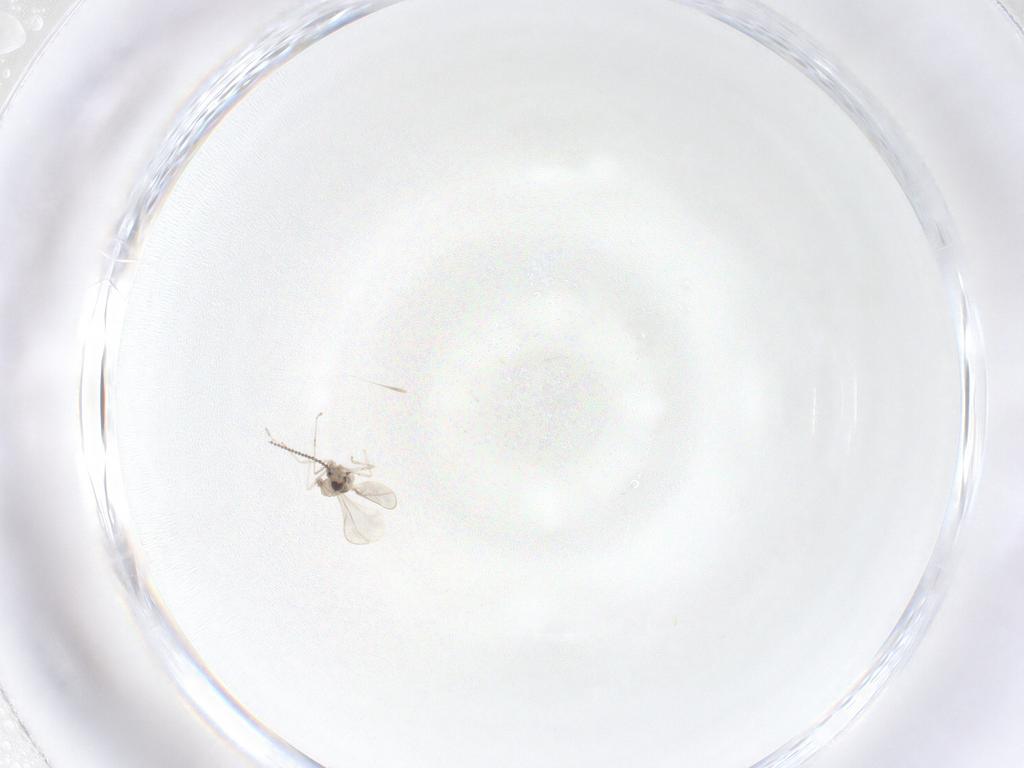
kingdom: Animalia
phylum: Arthropoda
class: Insecta
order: Diptera
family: Cecidomyiidae
